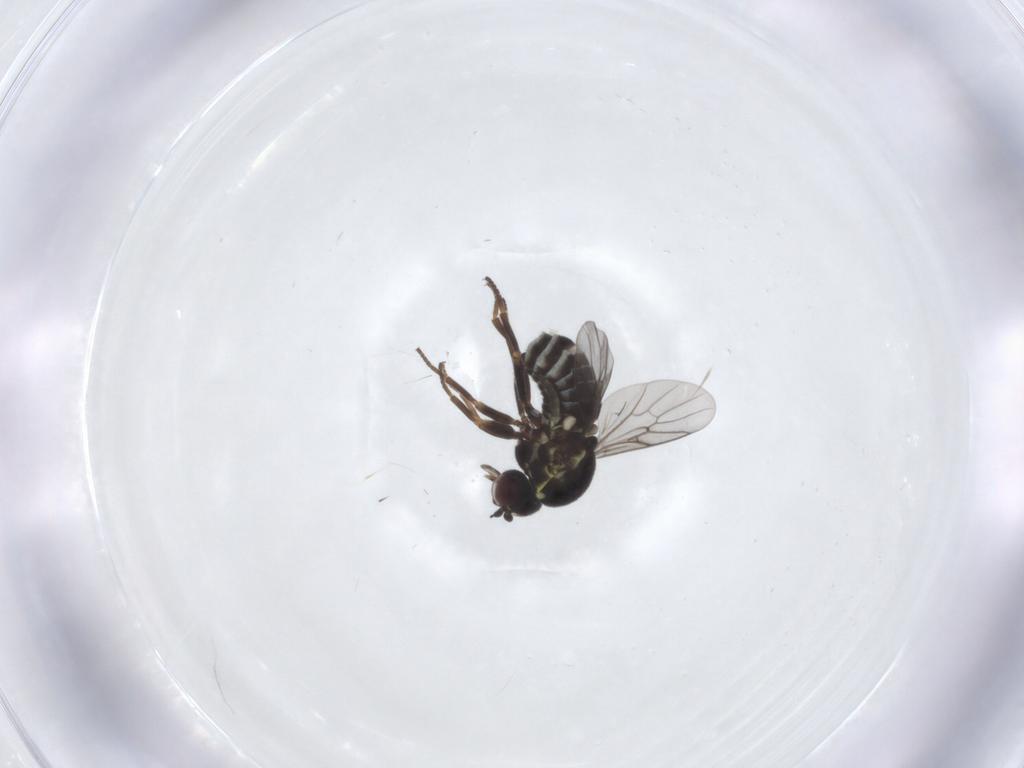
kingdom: Animalia
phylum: Arthropoda
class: Insecta
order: Diptera
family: Bombyliidae
